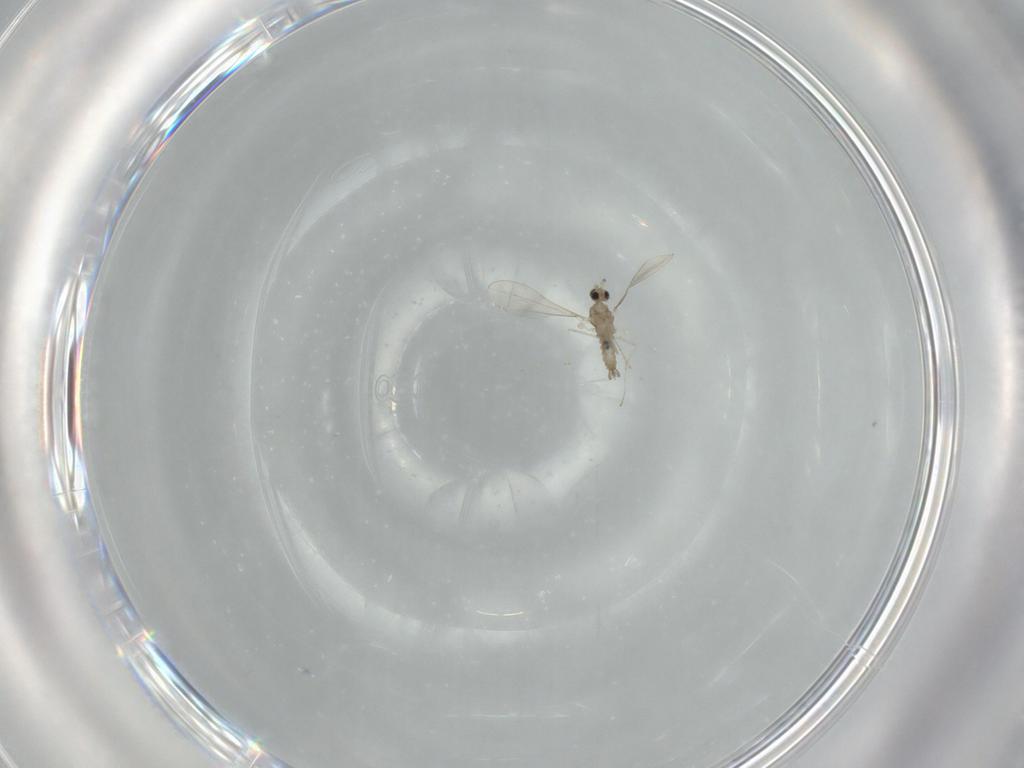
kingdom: Animalia
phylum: Arthropoda
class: Insecta
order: Diptera
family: Cecidomyiidae
